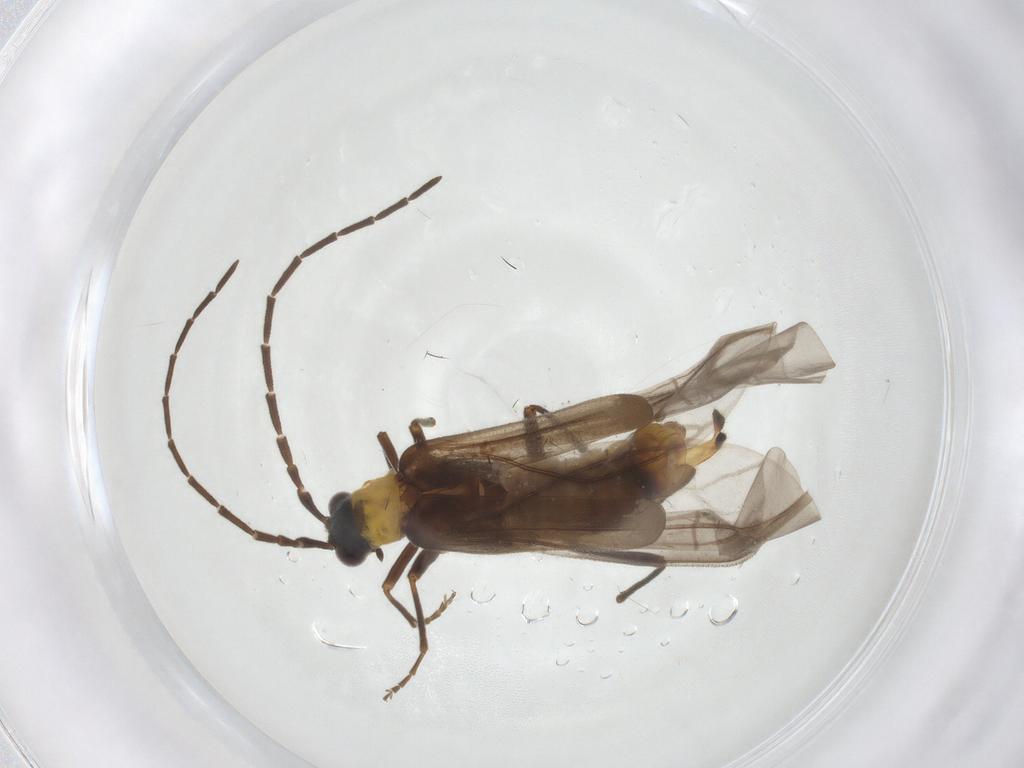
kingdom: Animalia
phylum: Arthropoda
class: Insecta
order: Coleoptera
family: Cantharidae
